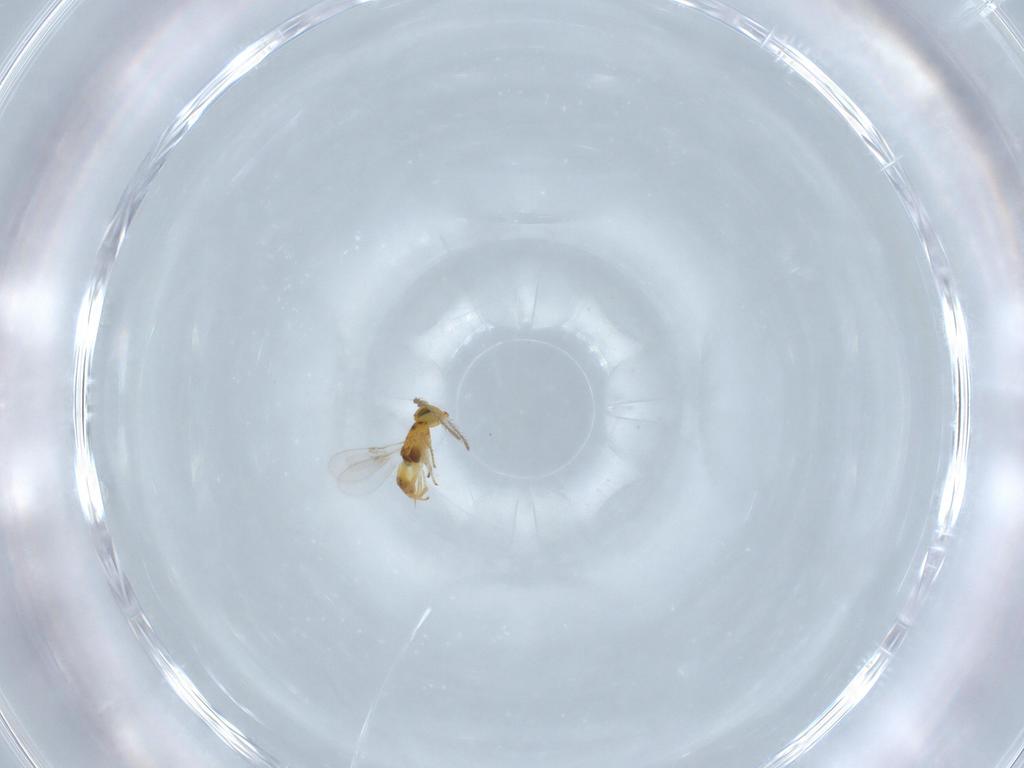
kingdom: Animalia
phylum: Arthropoda
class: Insecta
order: Hymenoptera
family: Encyrtidae
